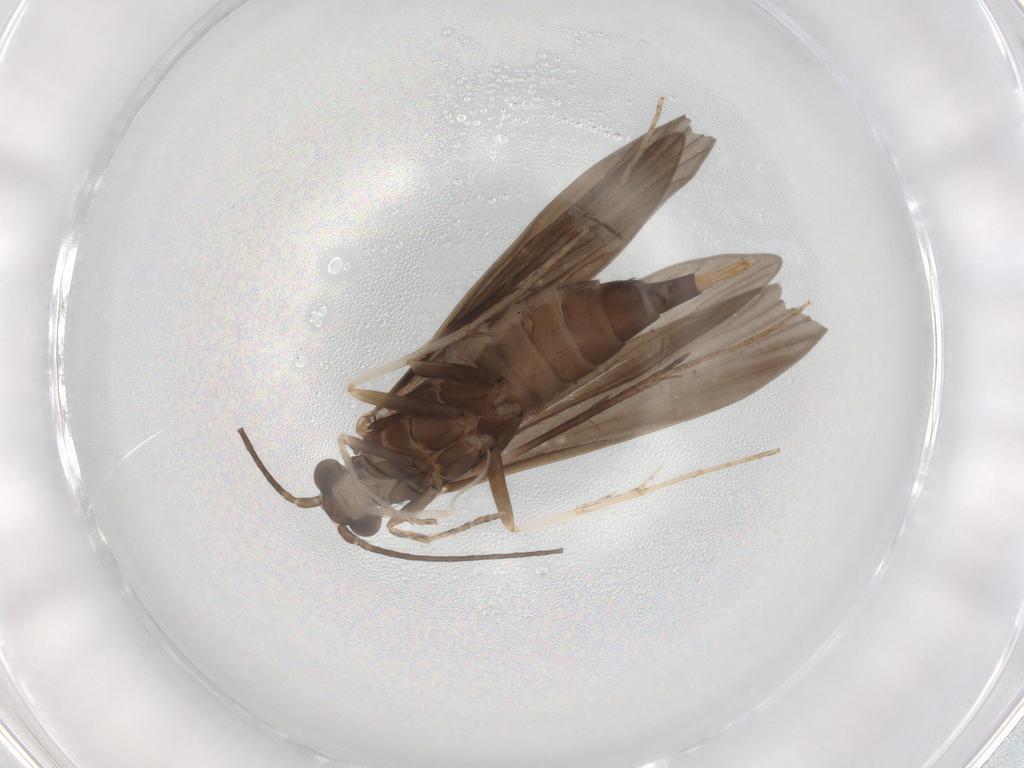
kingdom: Animalia
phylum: Arthropoda
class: Insecta
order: Trichoptera
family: Xiphocentronidae
